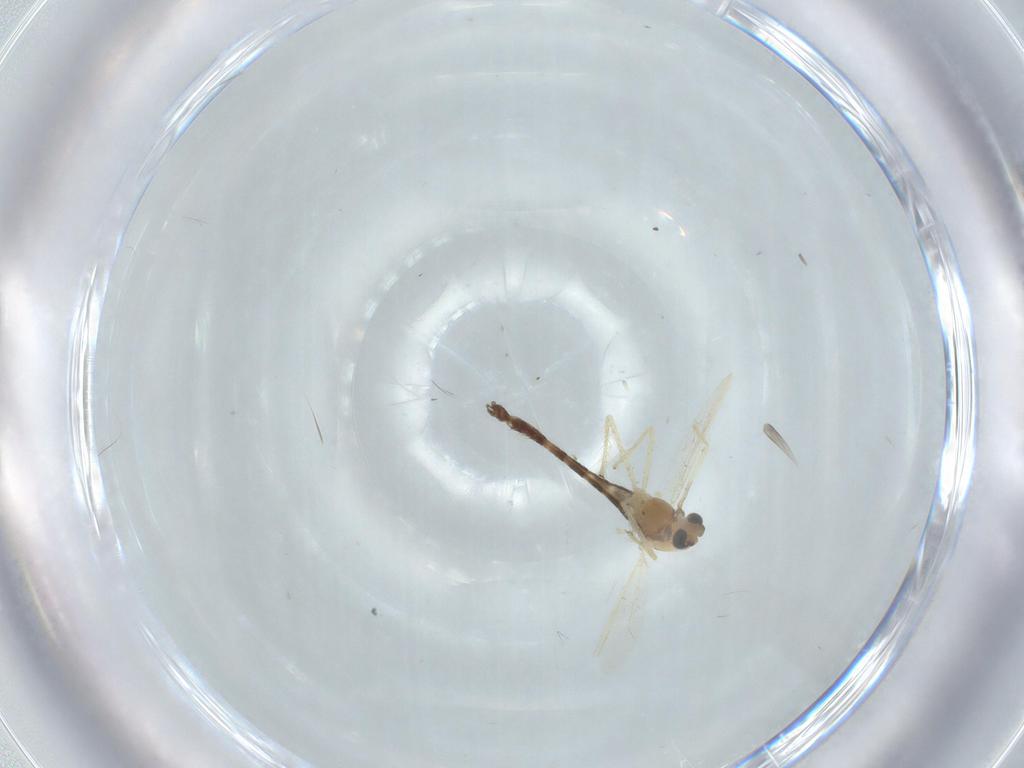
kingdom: Animalia
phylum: Arthropoda
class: Insecta
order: Diptera
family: Chironomidae
